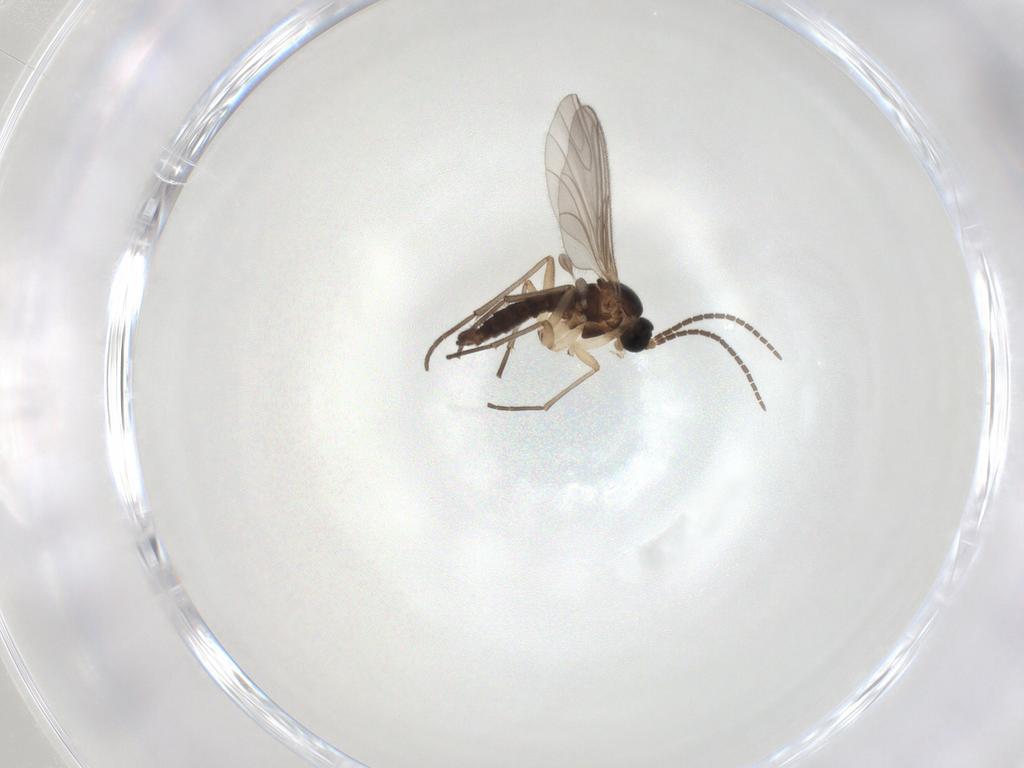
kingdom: Animalia
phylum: Arthropoda
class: Insecta
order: Diptera
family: Sciaridae
